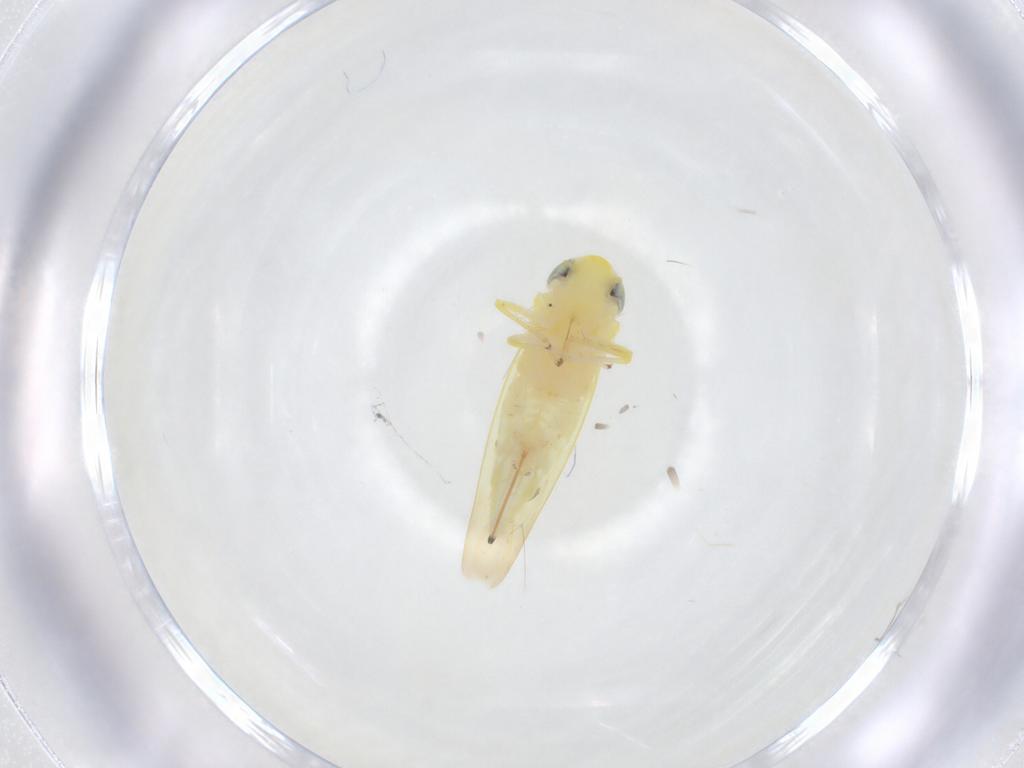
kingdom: Animalia
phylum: Arthropoda
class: Insecta
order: Hemiptera
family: Cicadellidae
